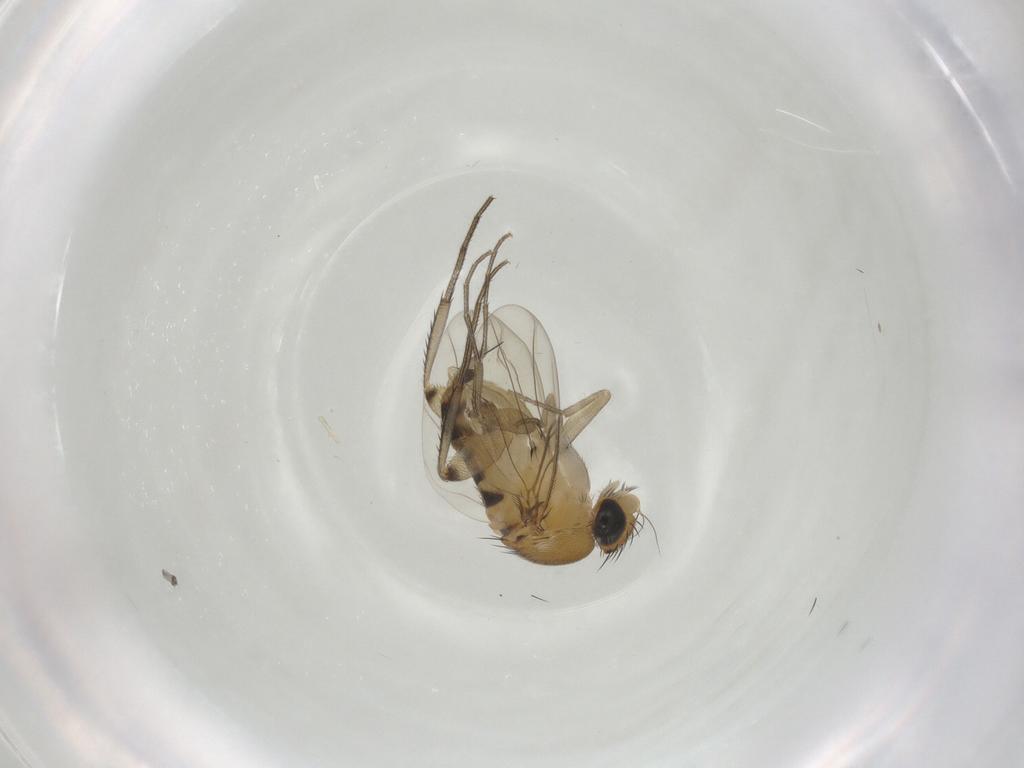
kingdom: Animalia
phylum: Arthropoda
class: Insecta
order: Diptera
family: Phoridae
